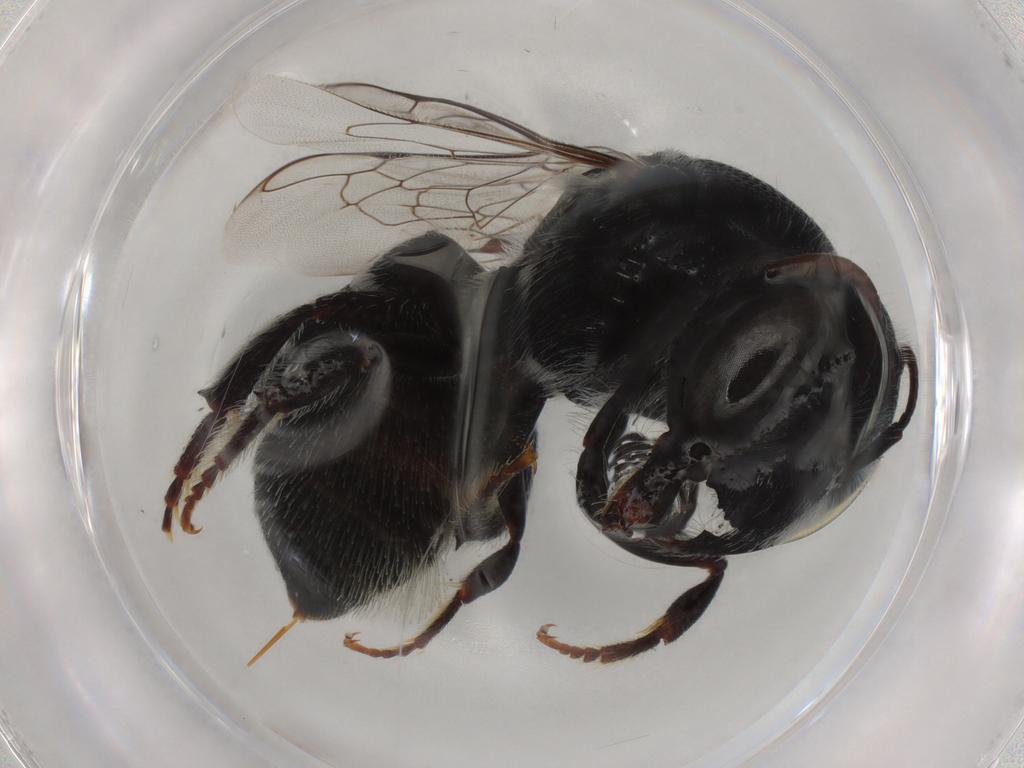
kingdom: Animalia
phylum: Arthropoda
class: Insecta
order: Hymenoptera
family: Megachilidae
